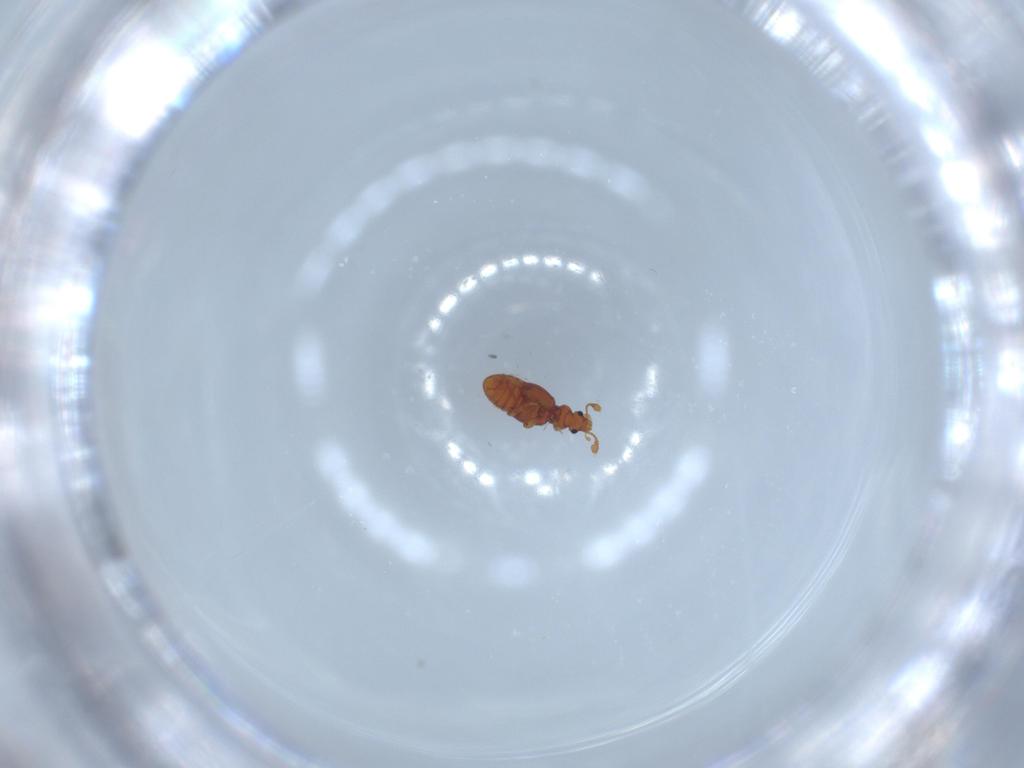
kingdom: Animalia
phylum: Arthropoda
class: Insecta
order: Coleoptera
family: Staphylinidae
